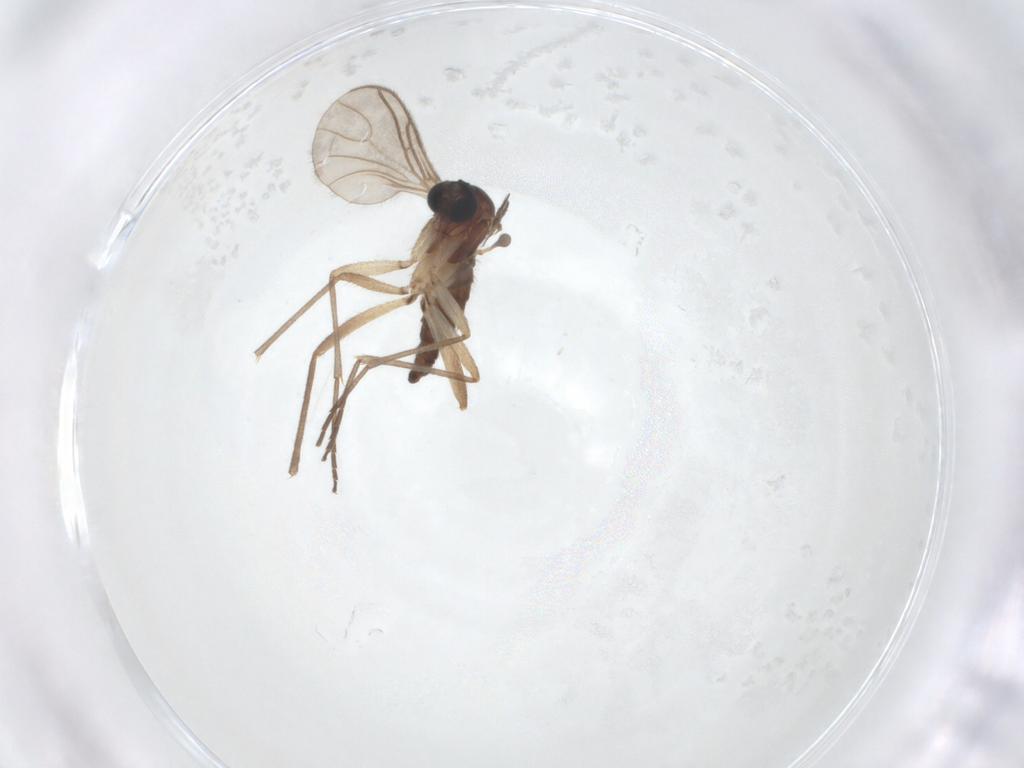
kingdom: Animalia
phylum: Arthropoda
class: Insecta
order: Diptera
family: Sciaridae
